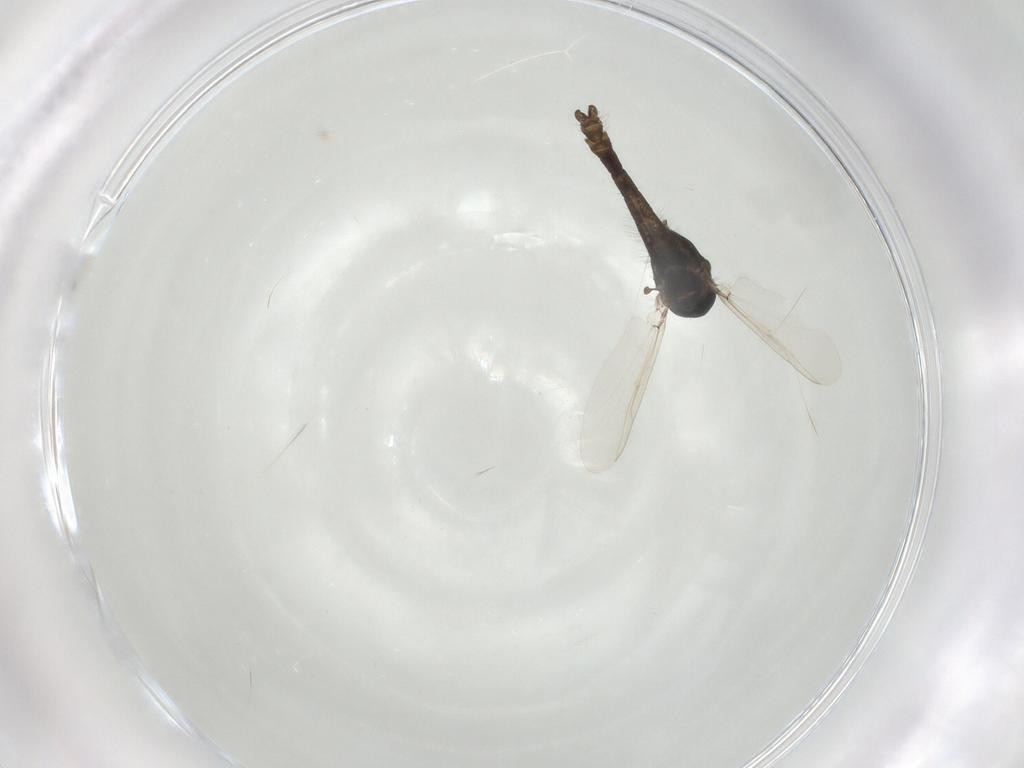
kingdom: Animalia
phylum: Arthropoda
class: Insecta
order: Diptera
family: Chironomidae
